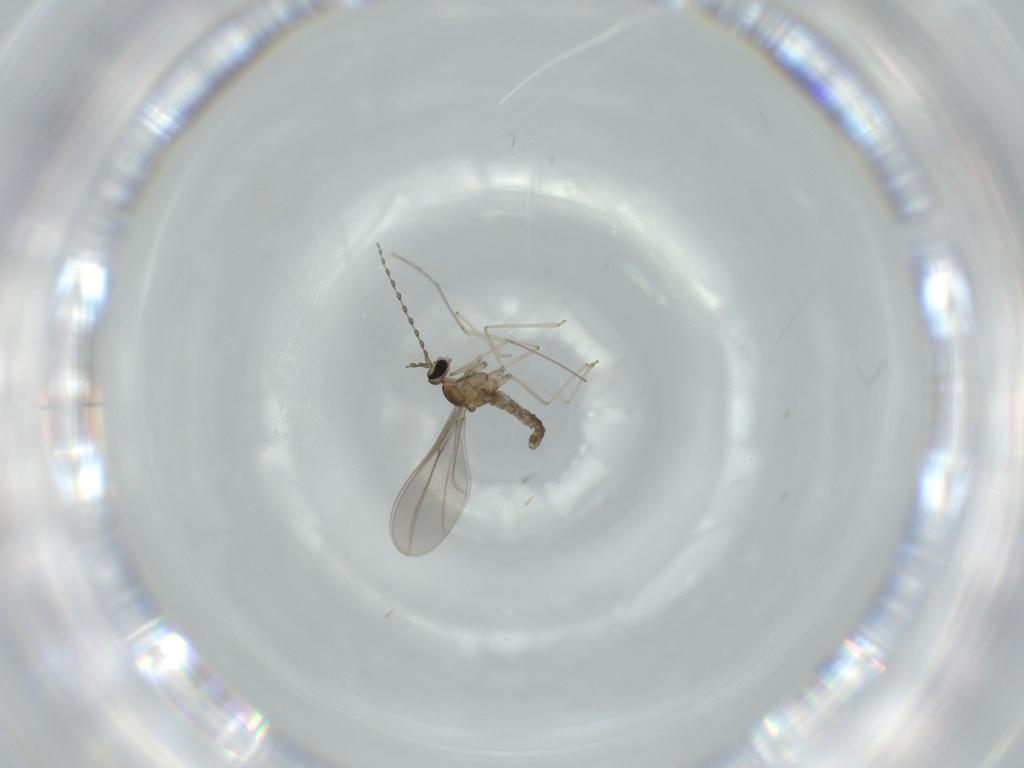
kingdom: Animalia
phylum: Arthropoda
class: Insecta
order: Diptera
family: Cecidomyiidae
